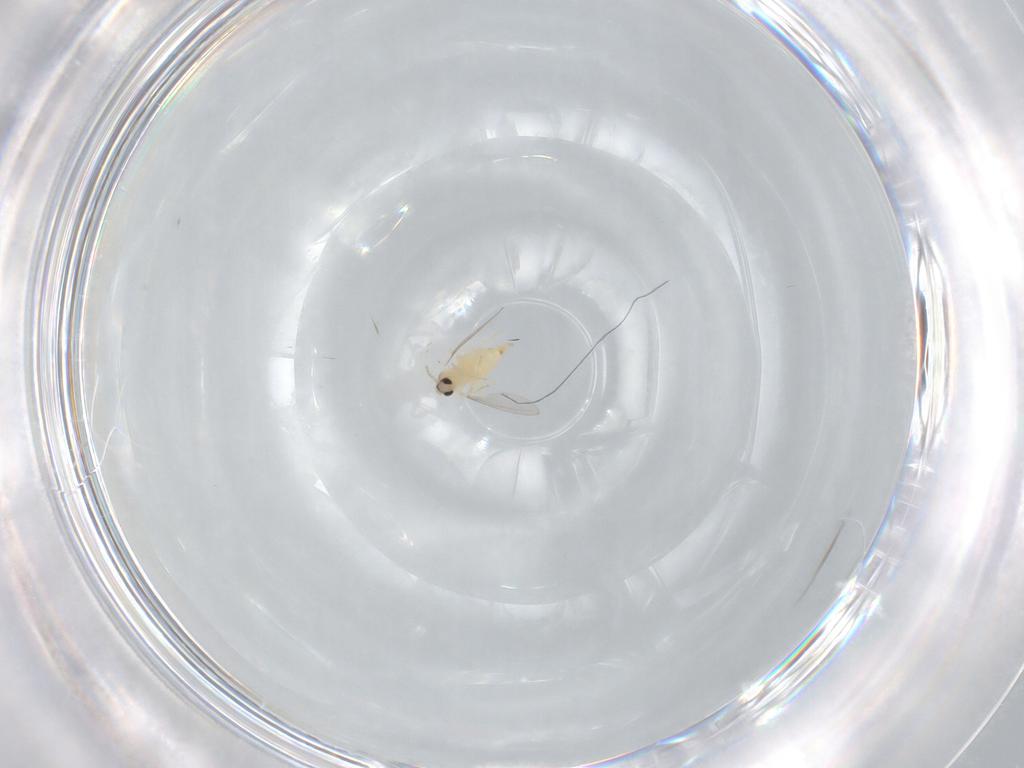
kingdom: Animalia
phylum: Arthropoda
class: Insecta
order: Diptera
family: Cecidomyiidae
